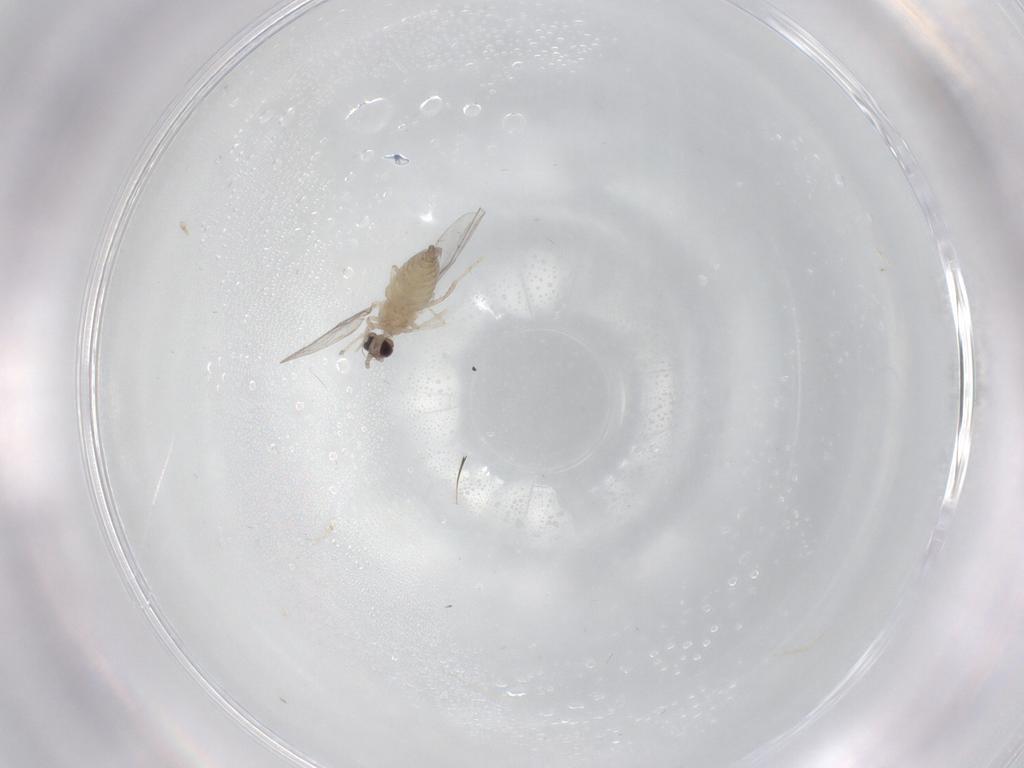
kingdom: Animalia
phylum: Arthropoda
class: Insecta
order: Diptera
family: Cecidomyiidae
